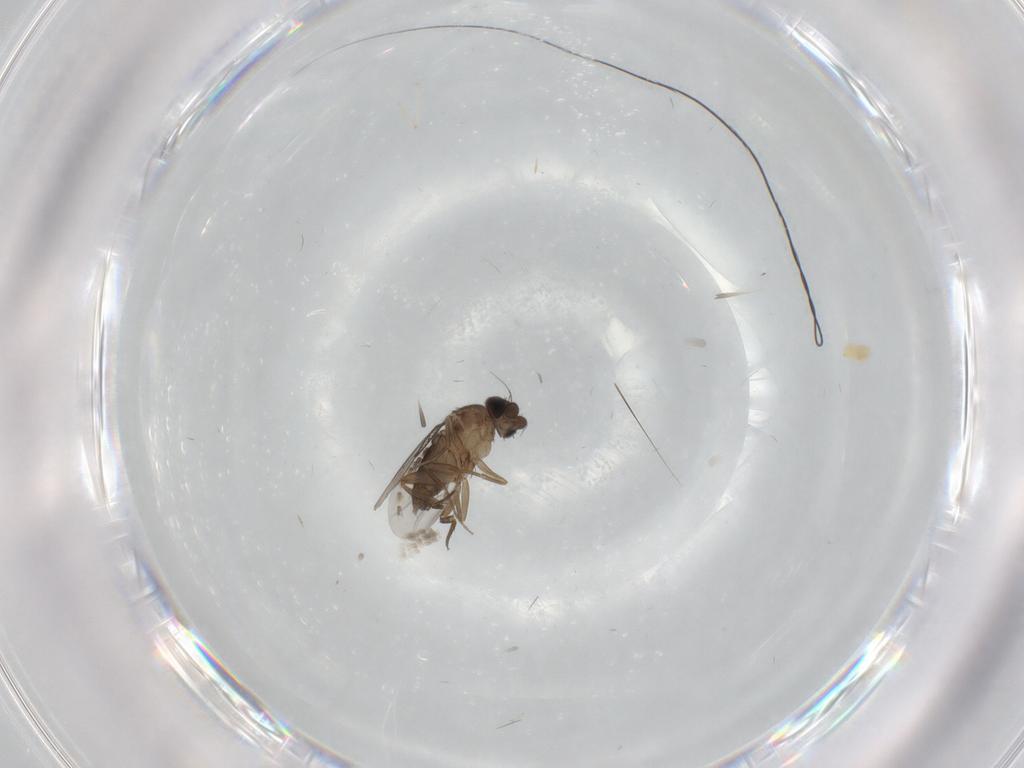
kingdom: Animalia
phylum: Arthropoda
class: Insecta
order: Diptera
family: Phoridae
